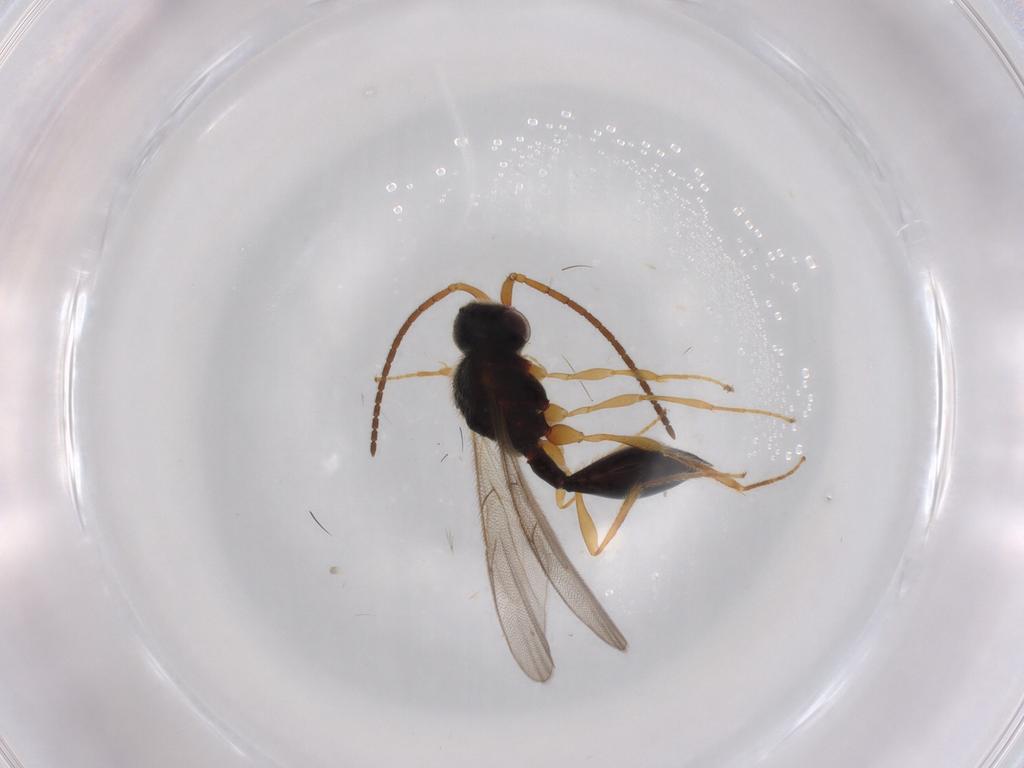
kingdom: Animalia
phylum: Arthropoda
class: Insecta
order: Hymenoptera
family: Diapriidae
